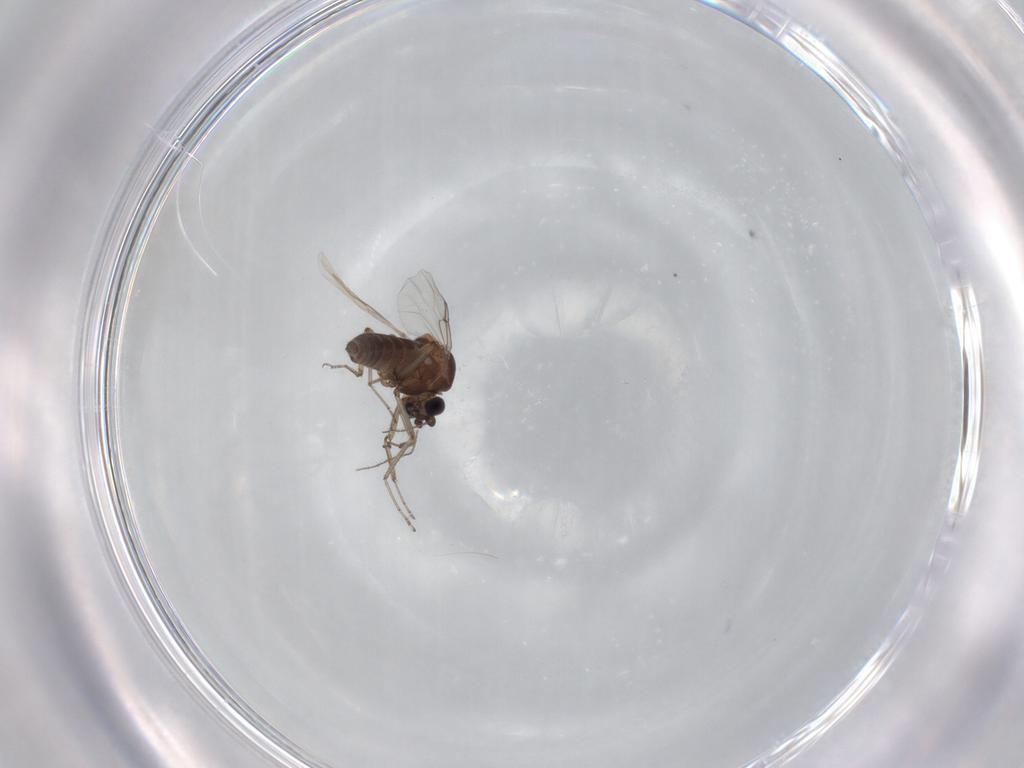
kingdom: Animalia
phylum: Arthropoda
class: Insecta
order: Diptera
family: Ceratopogonidae
